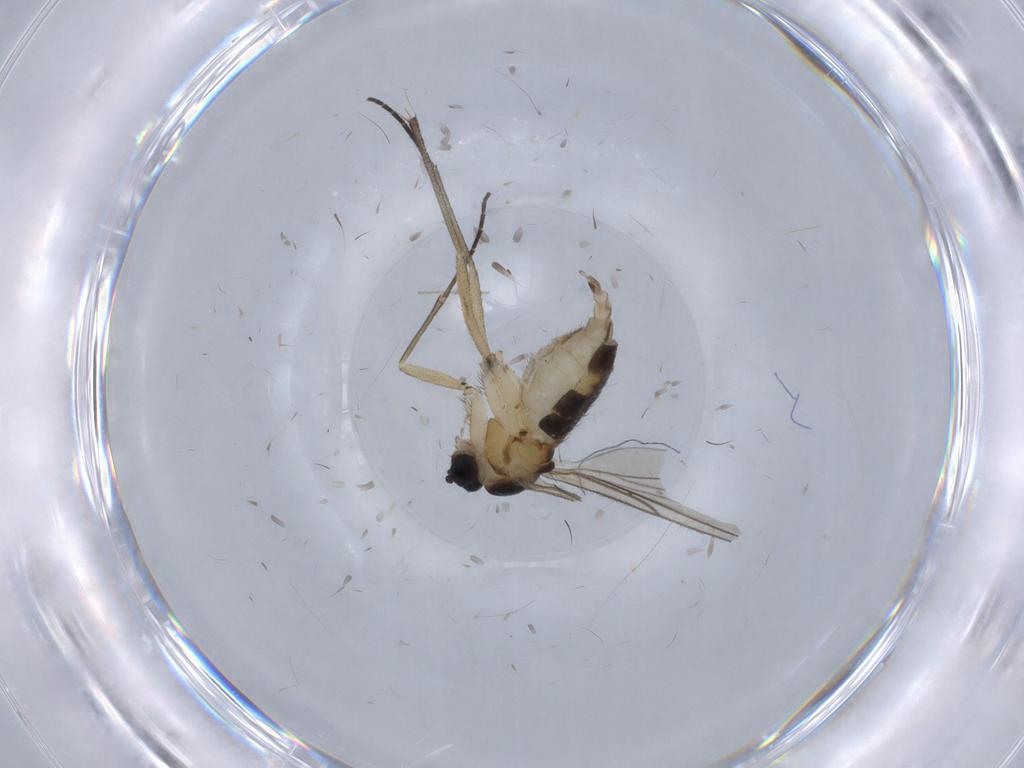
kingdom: Animalia
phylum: Arthropoda
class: Insecta
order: Diptera
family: Sciaridae
